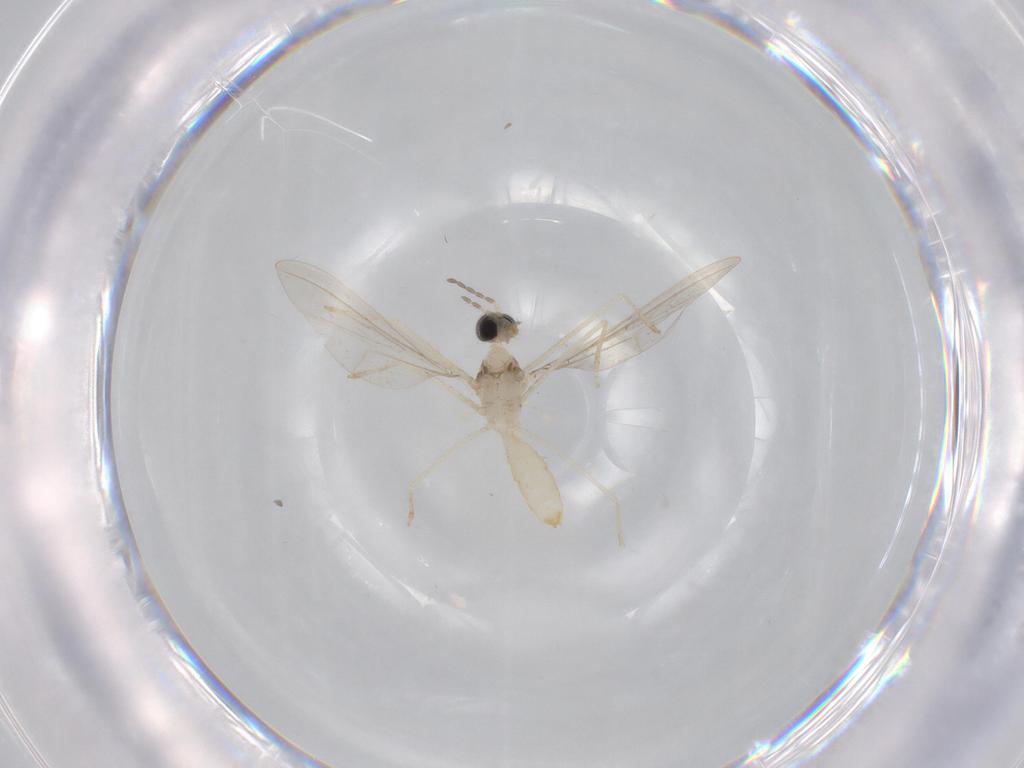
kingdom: Animalia
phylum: Arthropoda
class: Insecta
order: Diptera
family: Cecidomyiidae
